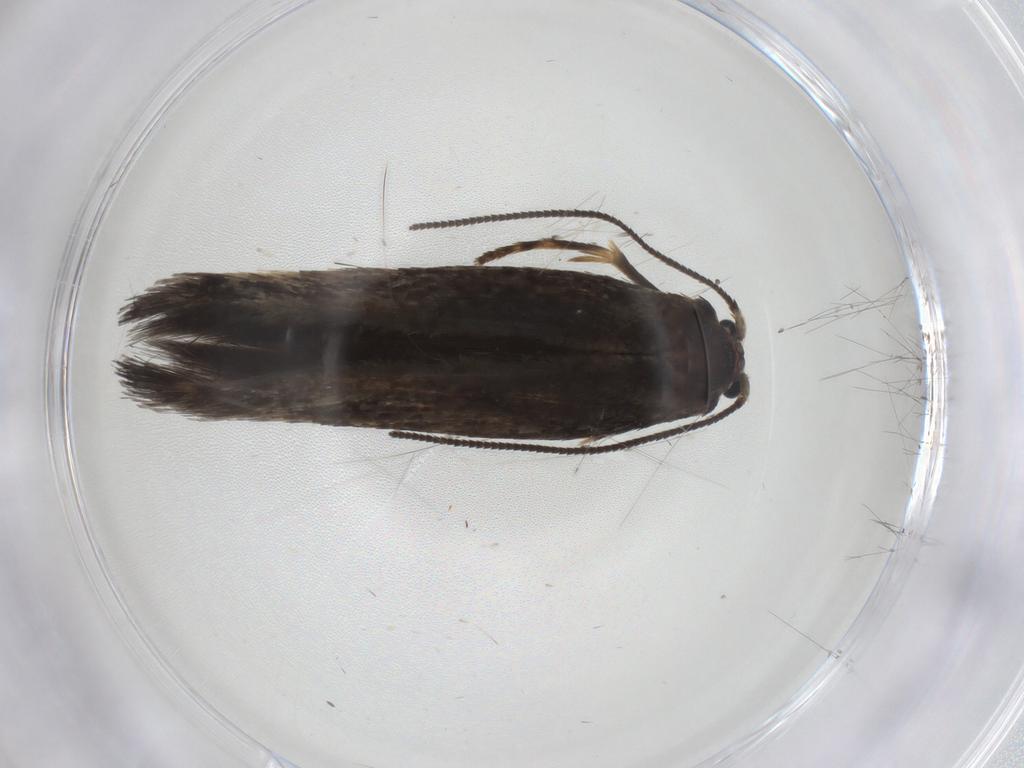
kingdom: Animalia
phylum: Arthropoda
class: Insecta
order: Lepidoptera
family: Nepticulidae
